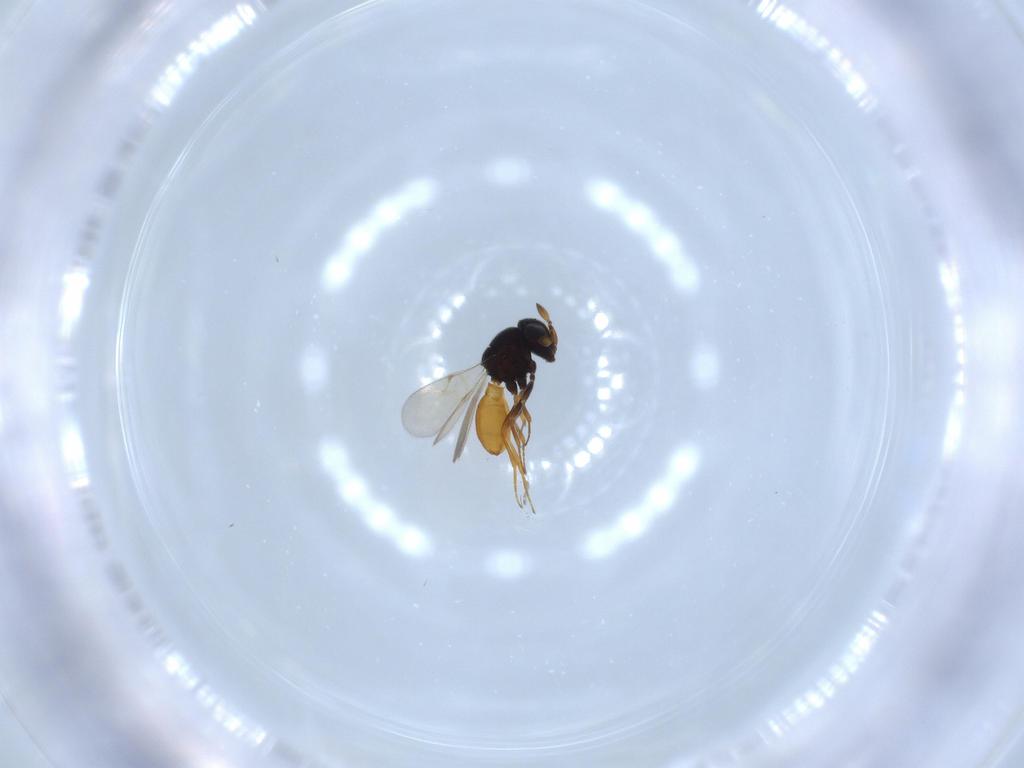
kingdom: Animalia
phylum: Arthropoda
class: Insecta
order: Hymenoptera
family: Scelionidae
